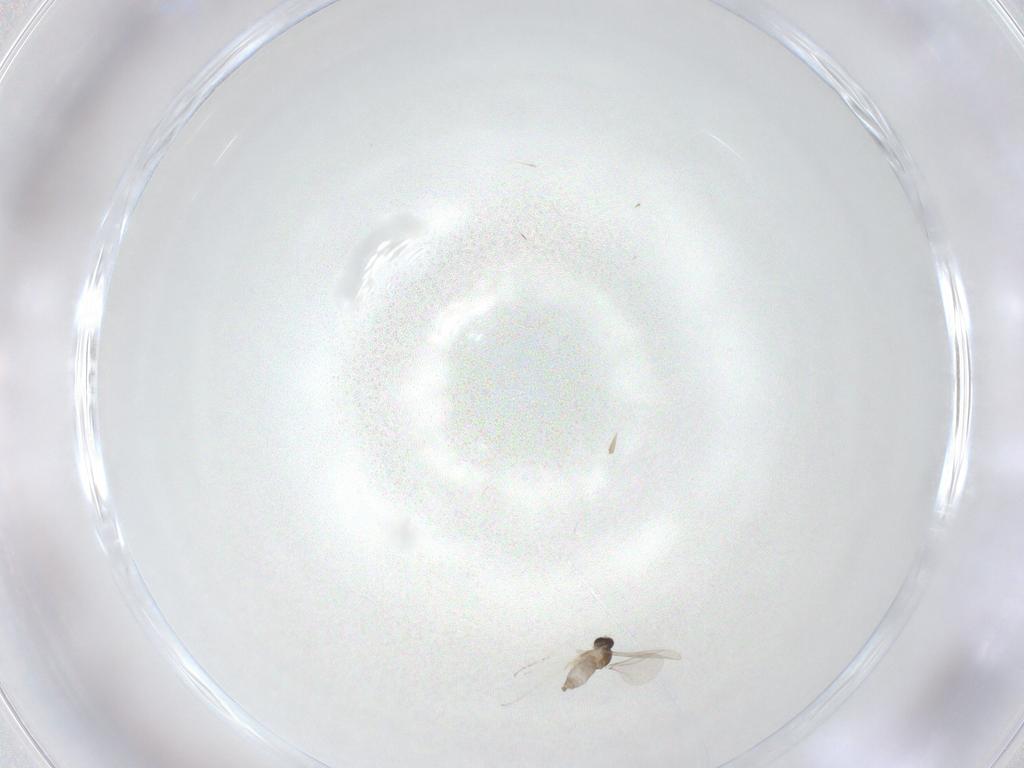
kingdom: Animalia
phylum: Arthropoda
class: Insecta
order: Diptera
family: Cecidomyiidae
